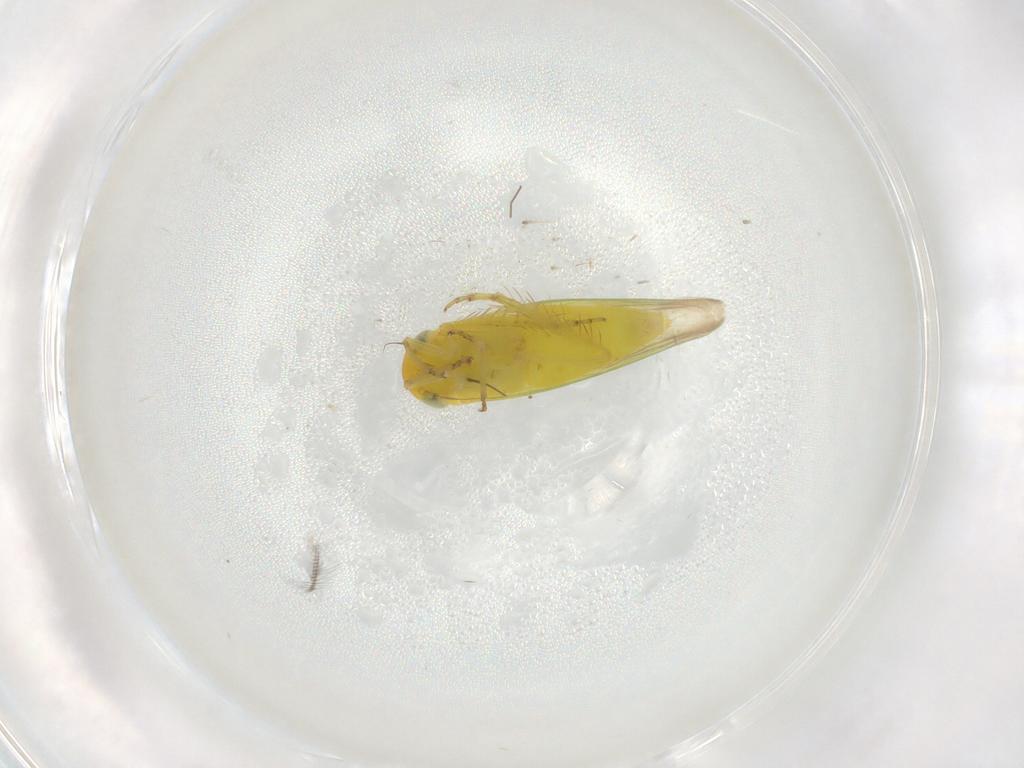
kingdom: Animalia
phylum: Arthropoda
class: Insecta
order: Hemiptera
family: Cicadellidae
